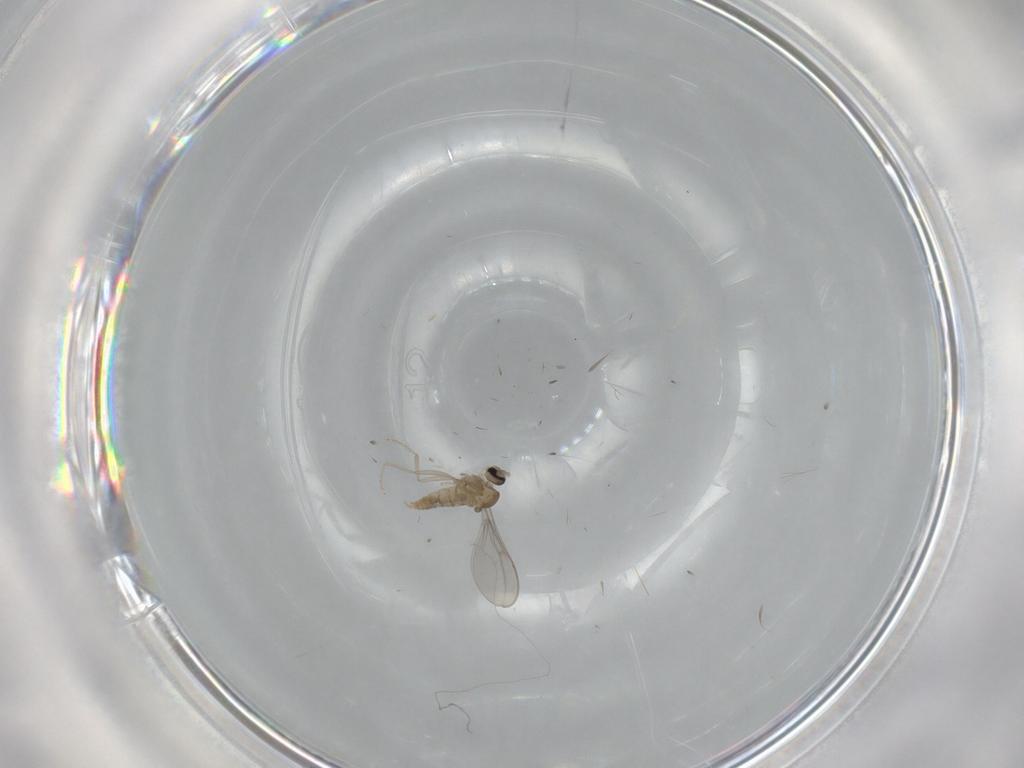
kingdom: Animalia
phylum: Arthropoda
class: Insecta
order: Diptera
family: Cecidomyiidae
